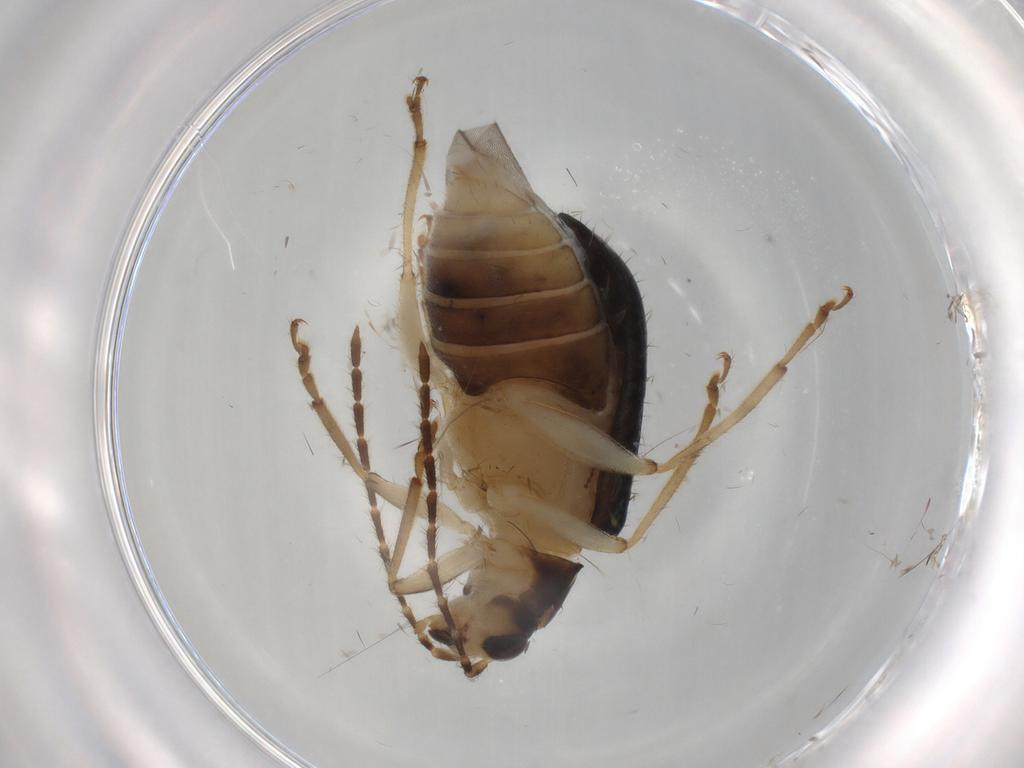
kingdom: Animalia
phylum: Arthropoda
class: Insecta
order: Coleoptera
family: Chrysomelidae
